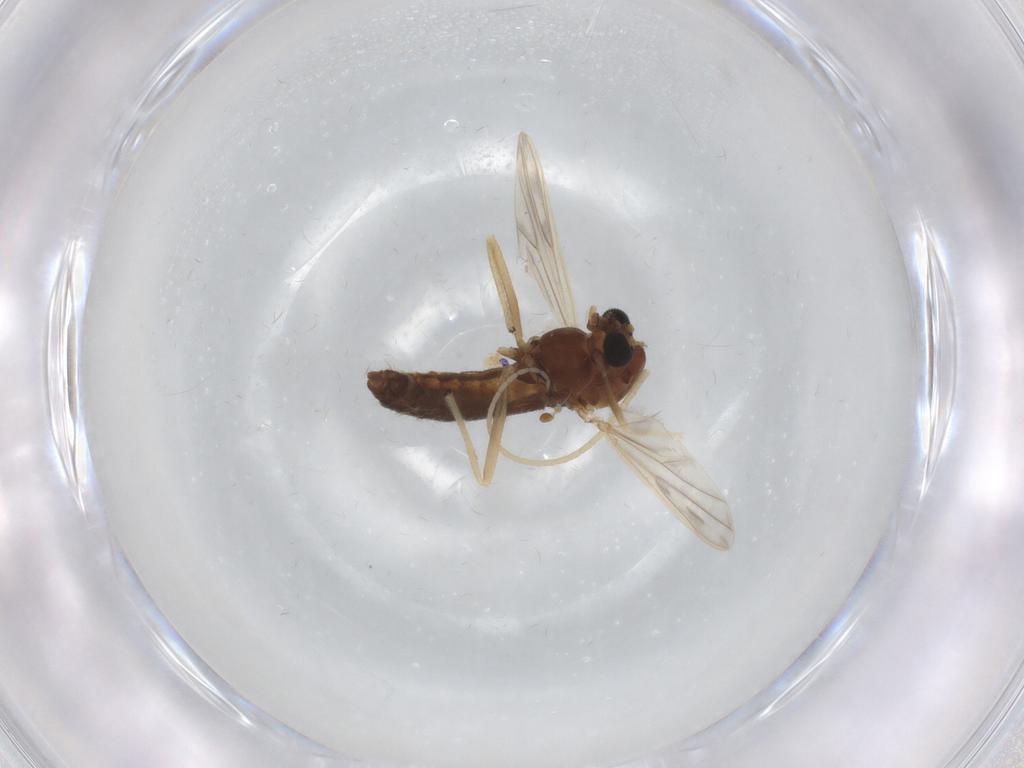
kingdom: Animalia
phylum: Arthropoda
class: Insecta
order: Diptera
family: Chironomidae
